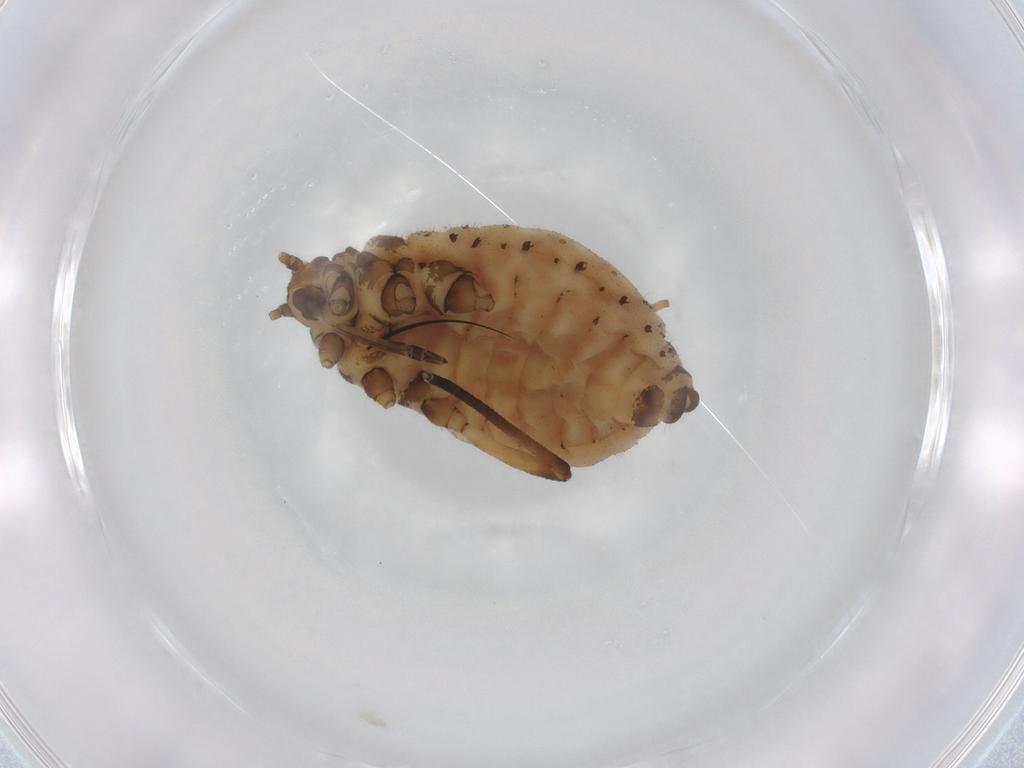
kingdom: Animalia
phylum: Arthropoda
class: Insecta
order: Hemiptera
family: Aphididae
